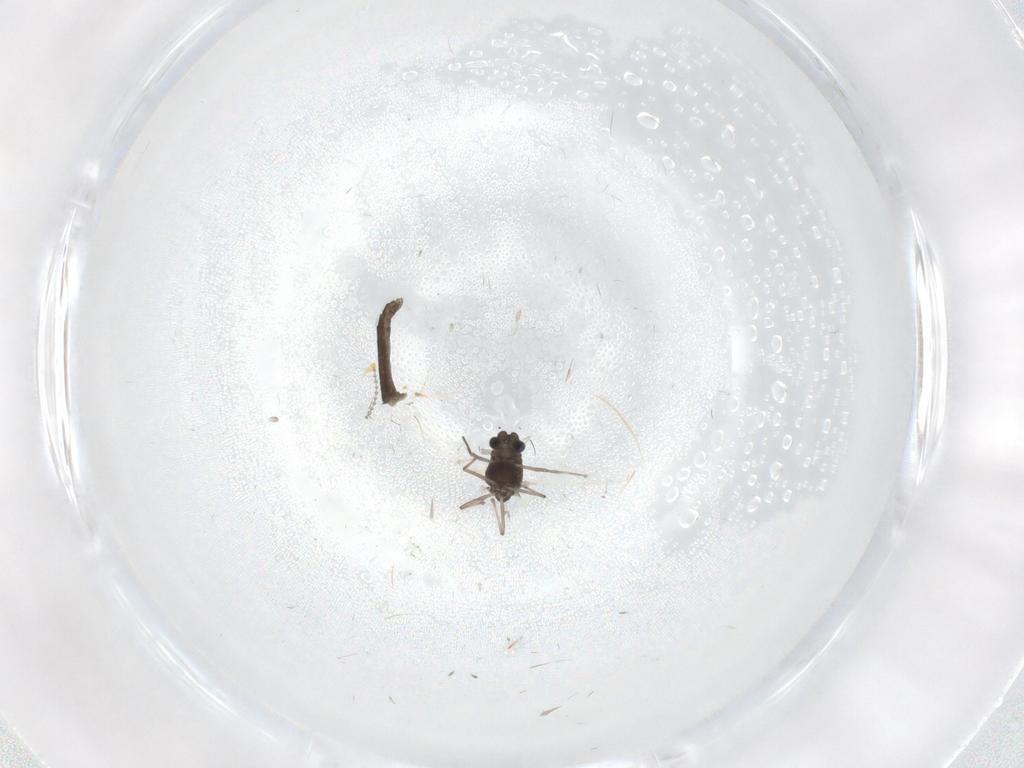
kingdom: Animalia
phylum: Arthropoda
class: Insecta
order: Diptera
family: Chironomidae
